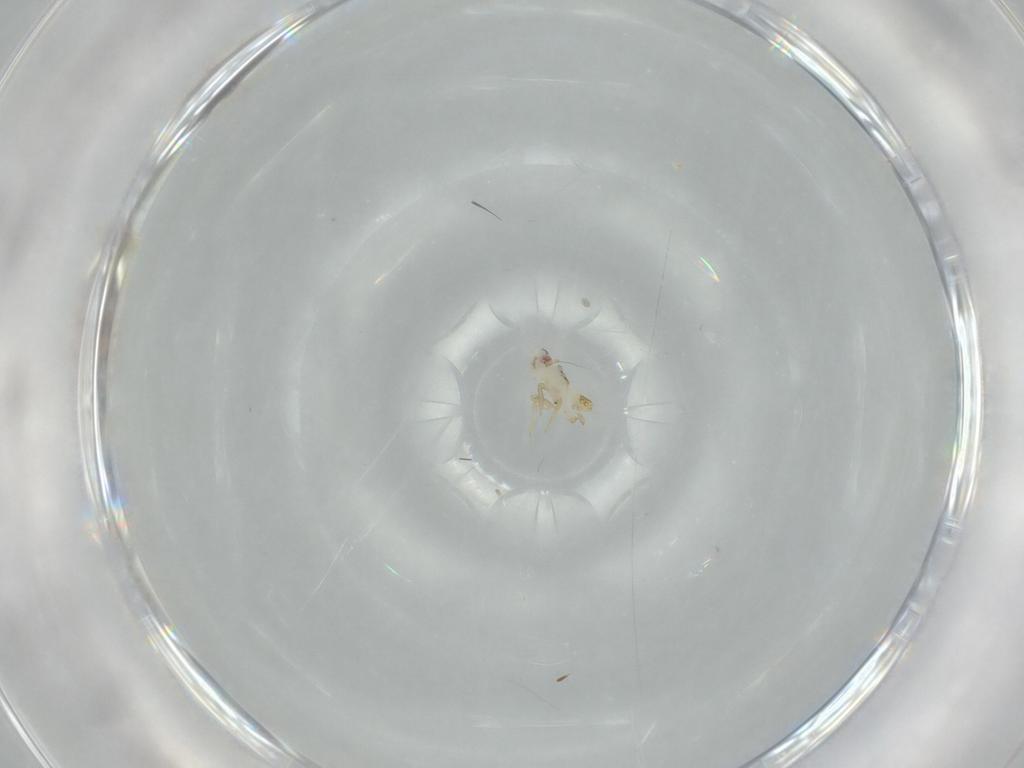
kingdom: Animalia
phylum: Arthropoda
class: Insecta
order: Hemiptera
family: Delphacidae
